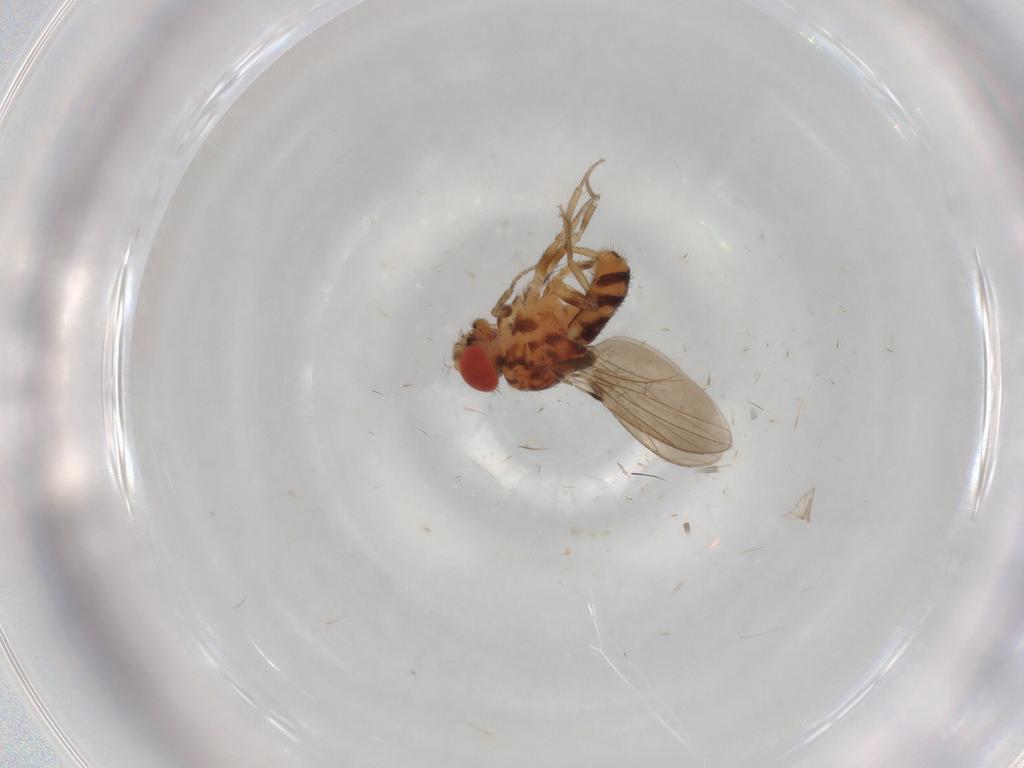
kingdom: Animalia
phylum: Arthropoda
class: Insecta
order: Diptera
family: Drosophilidae
